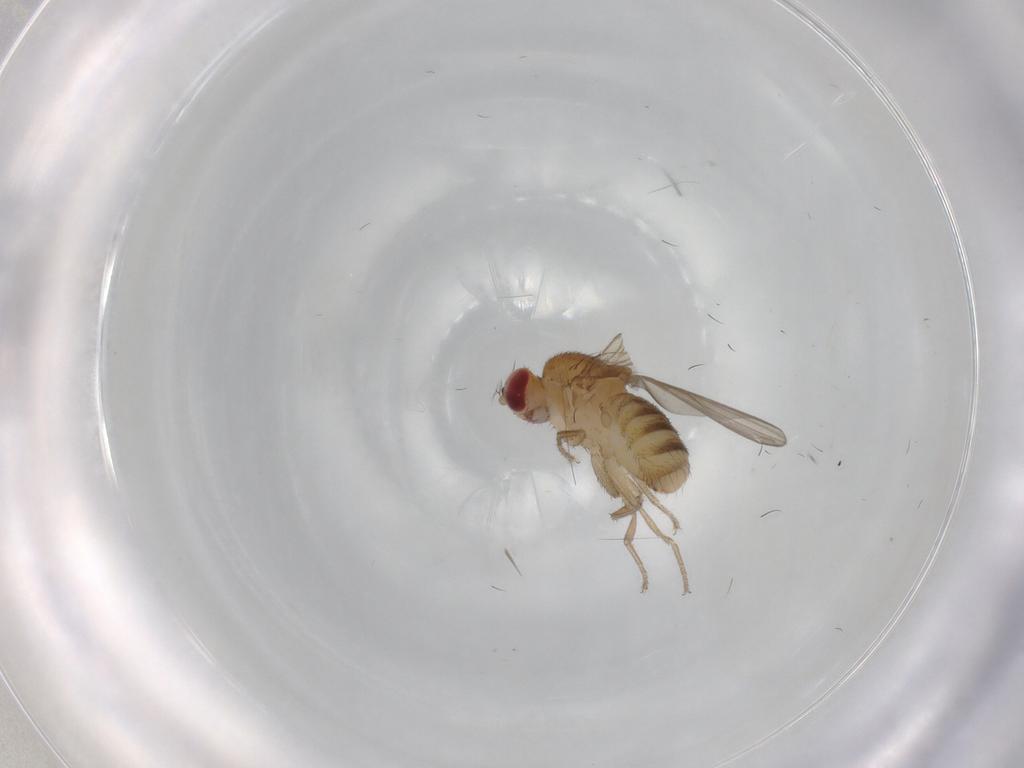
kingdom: Animalia
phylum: Arthropoda
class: Insecta
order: Diptera
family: Drosophilidae
